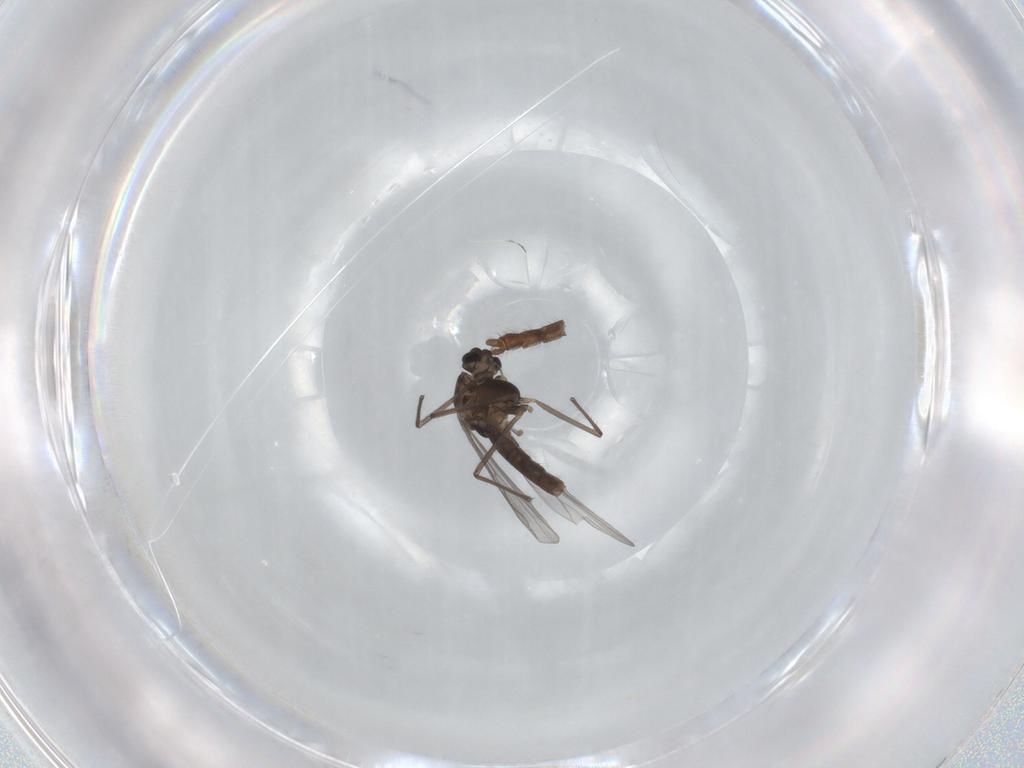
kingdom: Animalia
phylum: Arthropoda
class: Insecta
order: Diptera
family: Chironomidae
